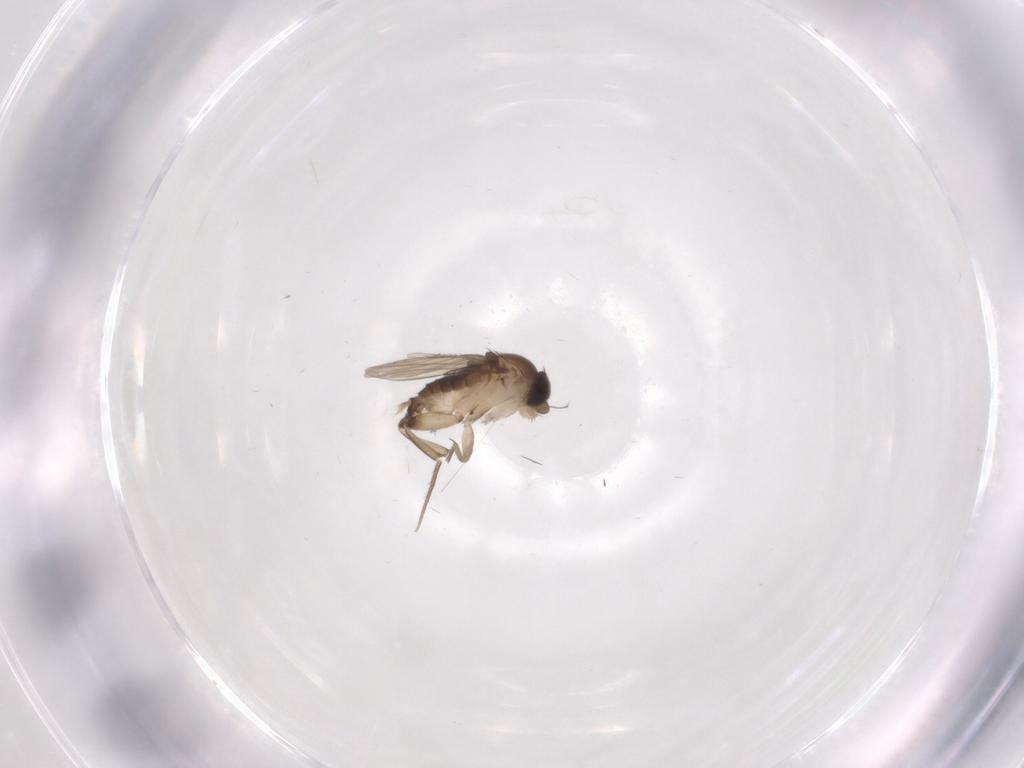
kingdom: Animalia
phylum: Arthropoda
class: Insecta
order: Diptera
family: Phoridae
